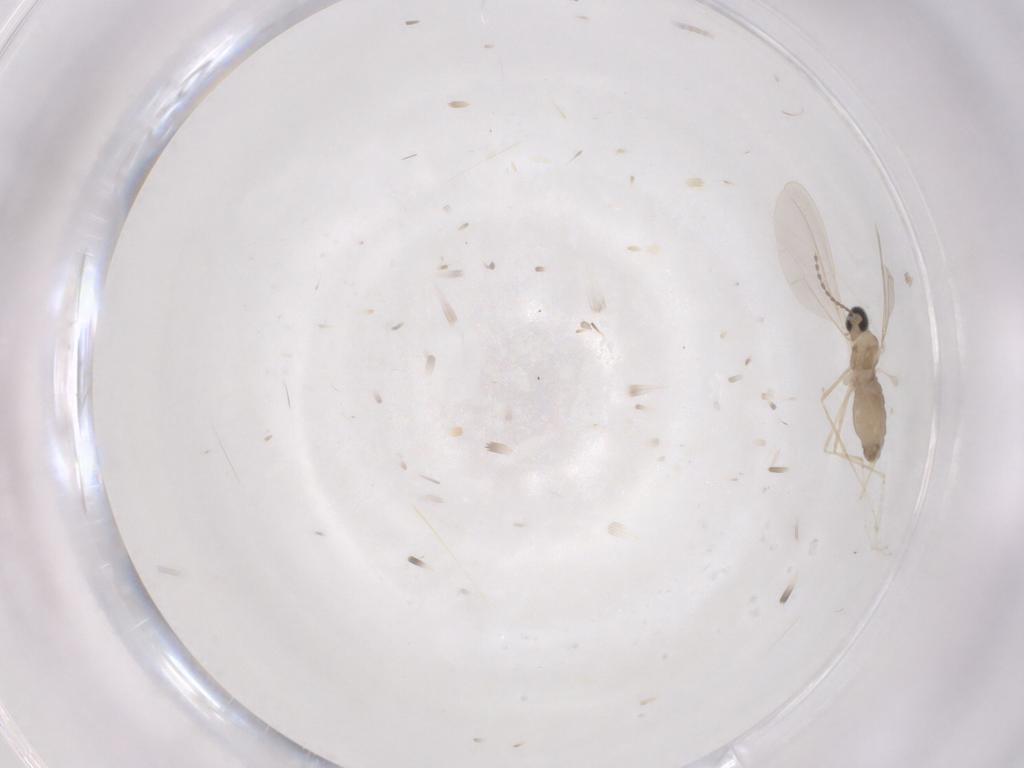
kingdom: Animalia
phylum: Arthropoda
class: Insecta
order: Diptera
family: Cecidomyiidae
